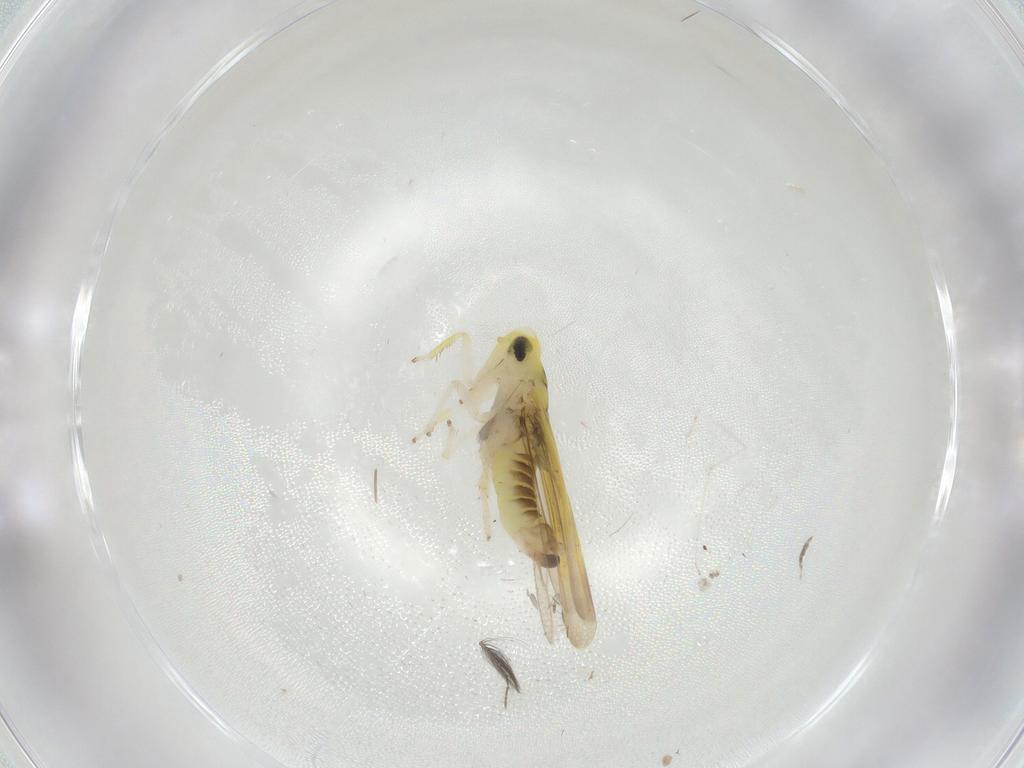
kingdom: Animalia
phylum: Arthropoda
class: Insecta
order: Hemiptera
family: Cicadellidae
